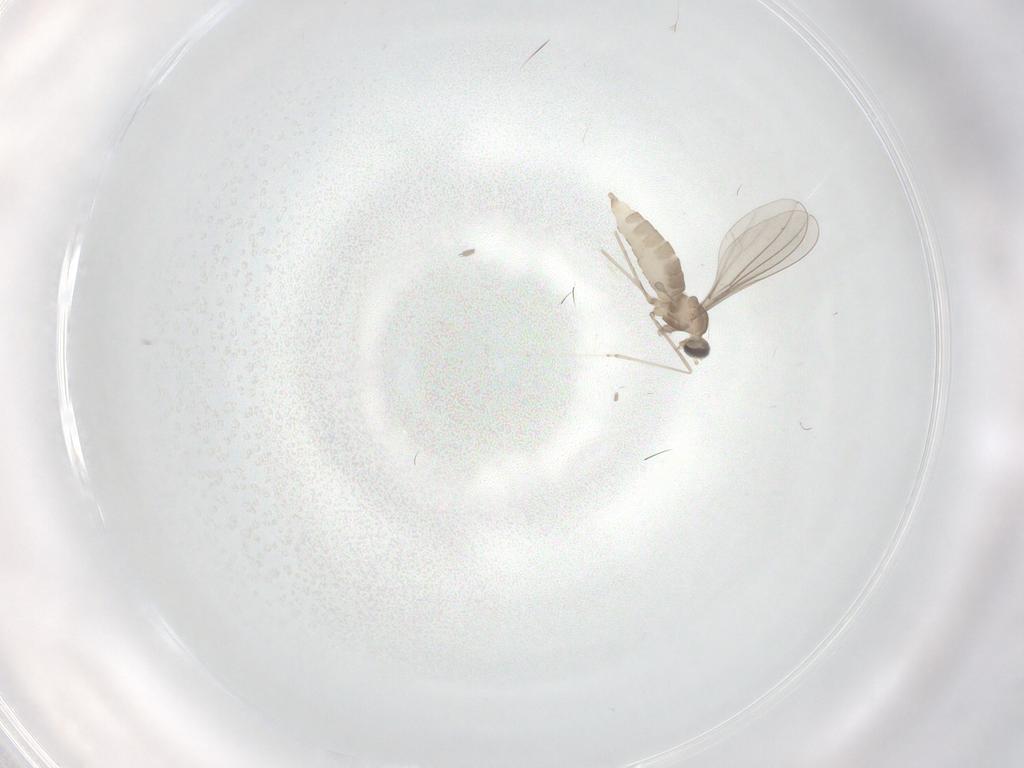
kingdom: Animalia
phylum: Arthropoda
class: Insecta
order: Diptera
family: Cecidomyiidae
